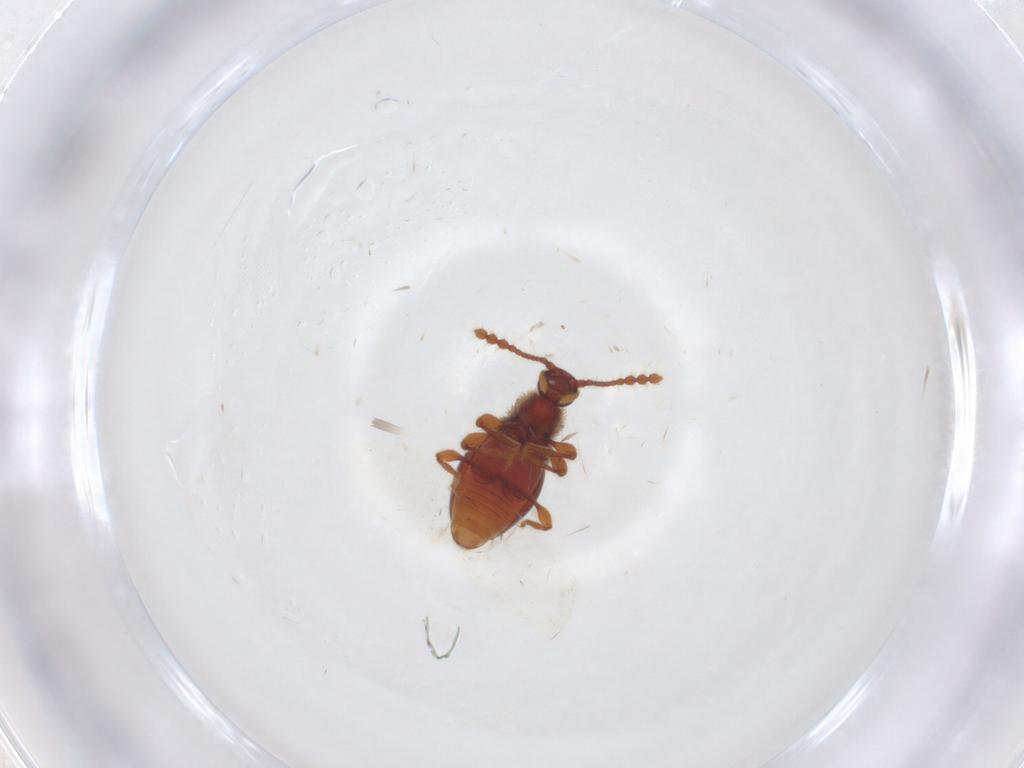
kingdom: Animalia
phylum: Arthropoda
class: Insecta
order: Coleoptera
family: Staphylinidae
